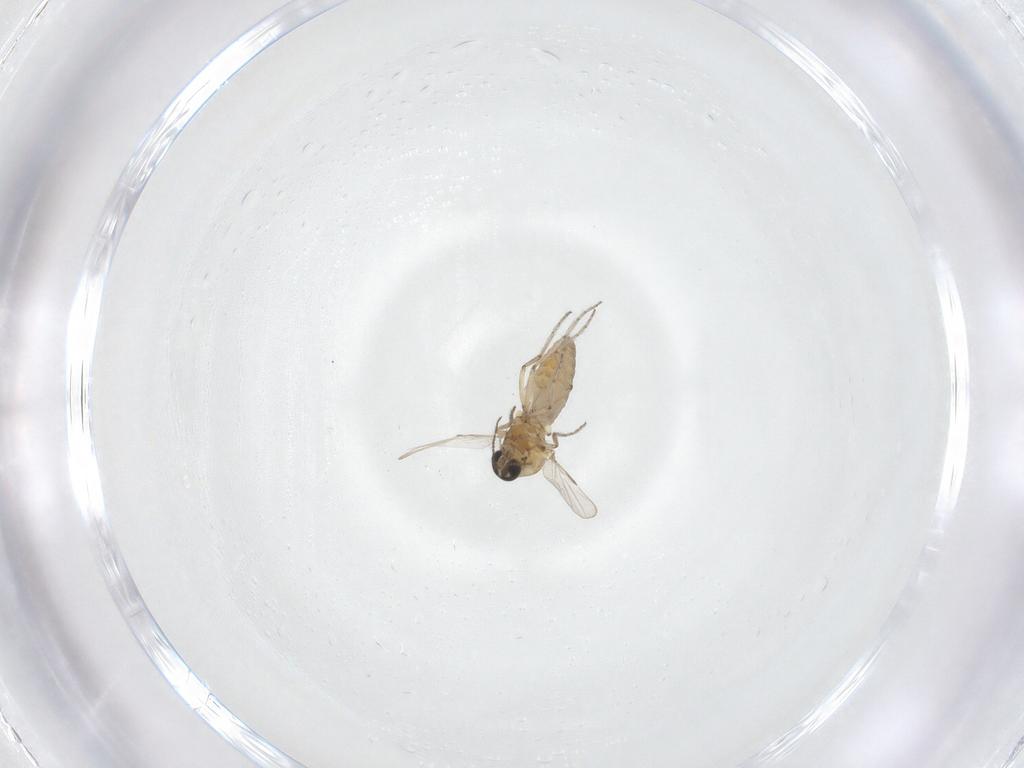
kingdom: Animalia
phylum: Arthropoda
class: Insecta
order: Diptera
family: Ceratopogonidae
